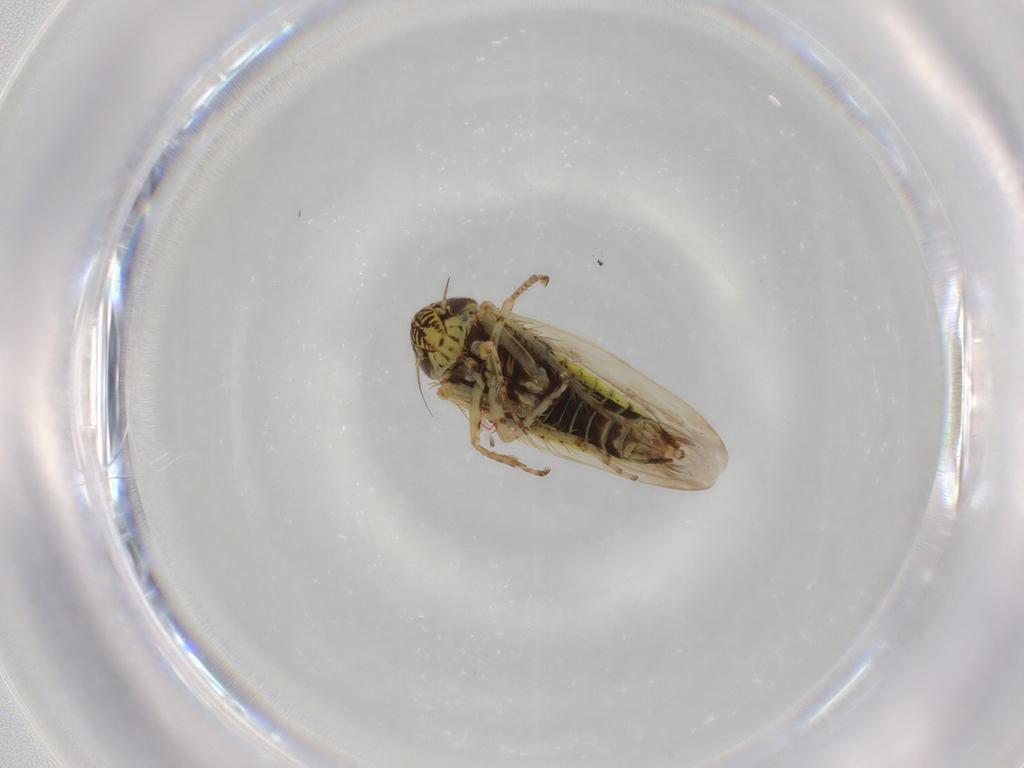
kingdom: Animalia
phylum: Arthropoda
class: Insecta
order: Hemiptera
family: Cicadellidae
